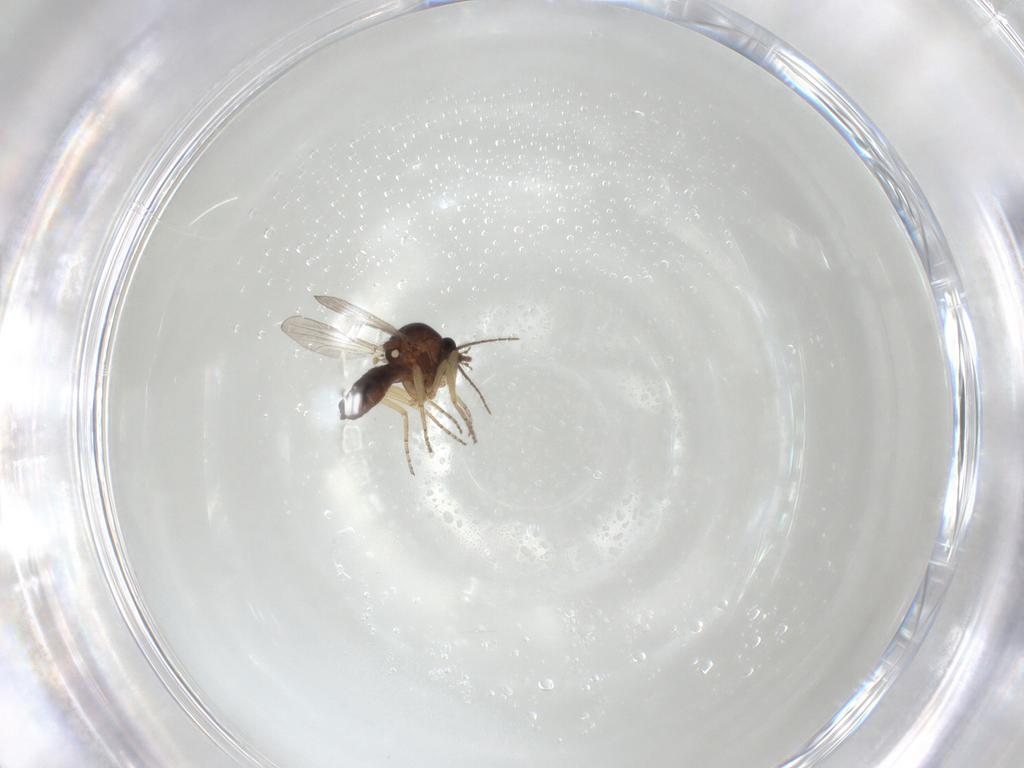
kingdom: Animalia
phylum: Arthropoda
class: Insecta
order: Diptera
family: Ceratopogonidae
